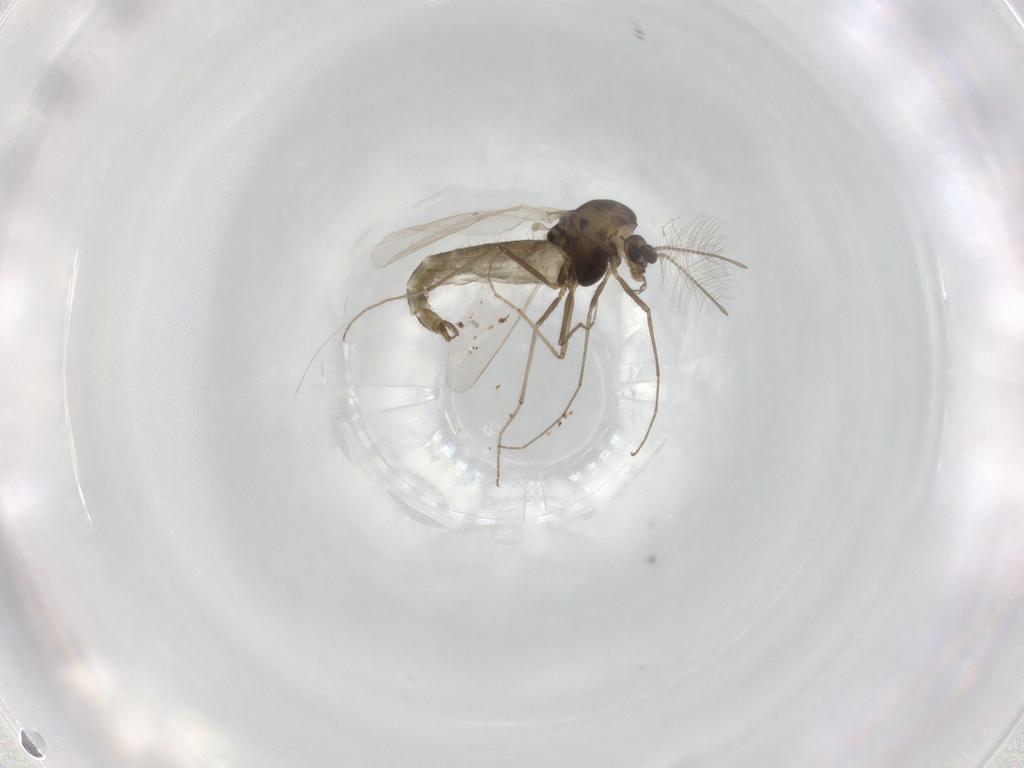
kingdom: Animalia
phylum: Arthropoda
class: Insecta
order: Diptera
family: Chironomidae
